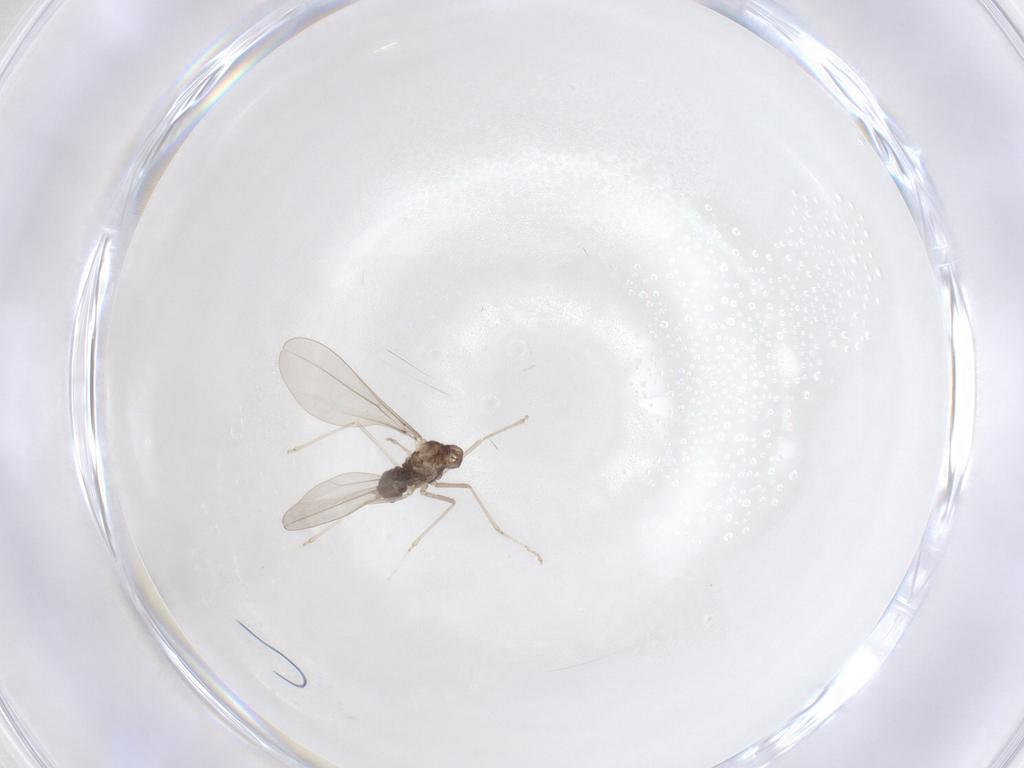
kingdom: Animalia
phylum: Arthropoda
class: Insecta
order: Diptera
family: Cecidomyiidae
